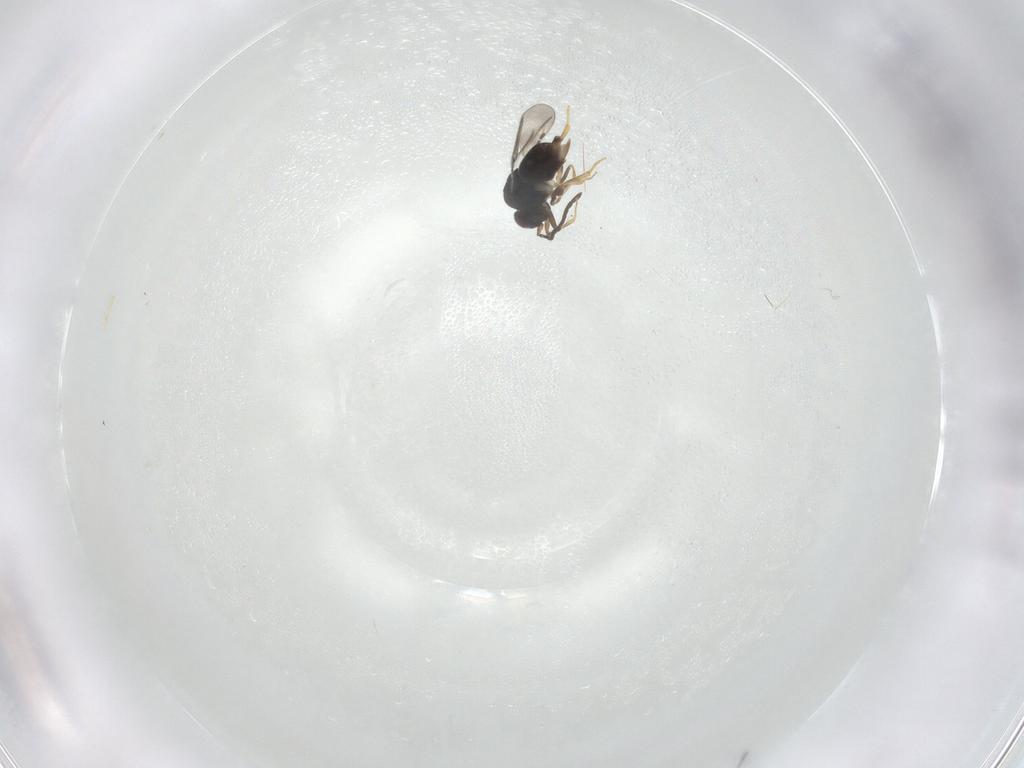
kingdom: Animalia
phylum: Arthropoda
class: Insecta
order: Hymenoptera
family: Ceraphronidae
